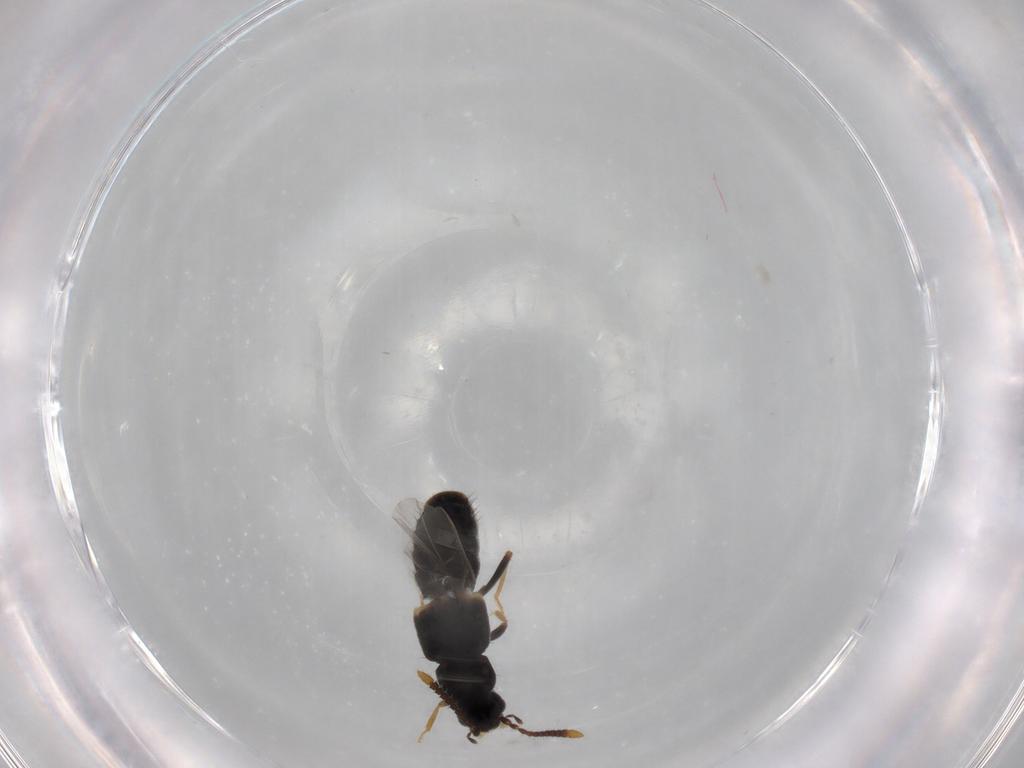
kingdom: Animalia
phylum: Arthropoda
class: Insecta
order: Coleoptera
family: Staphylinidae
